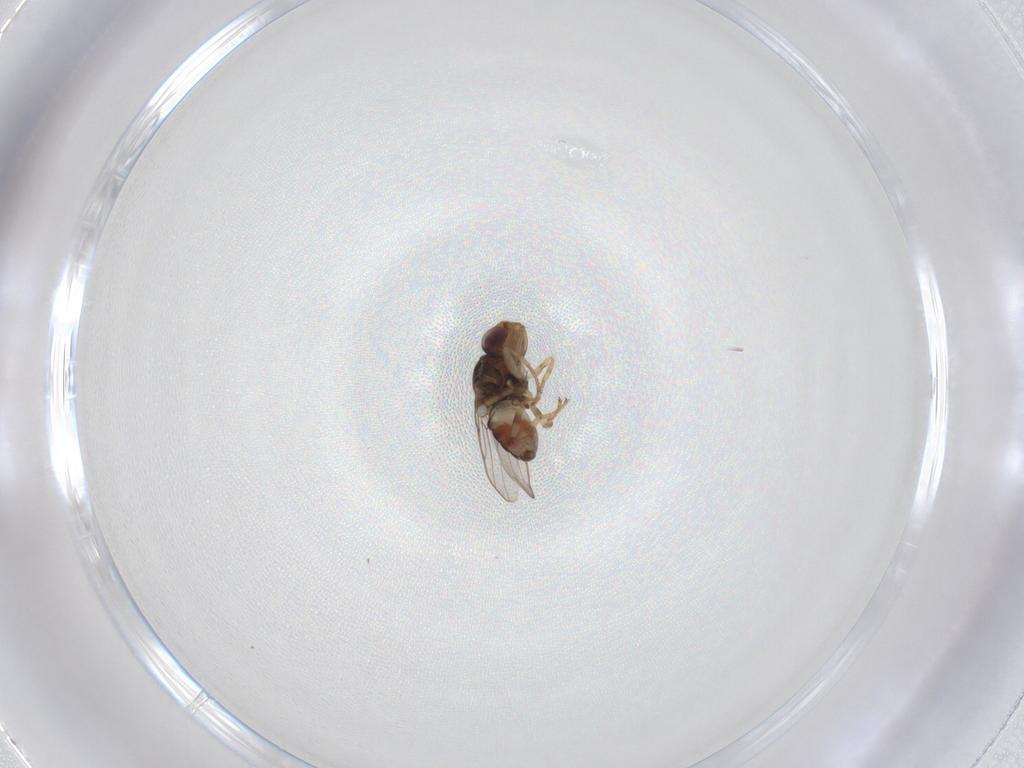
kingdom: Animalia
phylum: Arthropoda
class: Insecta
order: Diptera
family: Chloropidae
